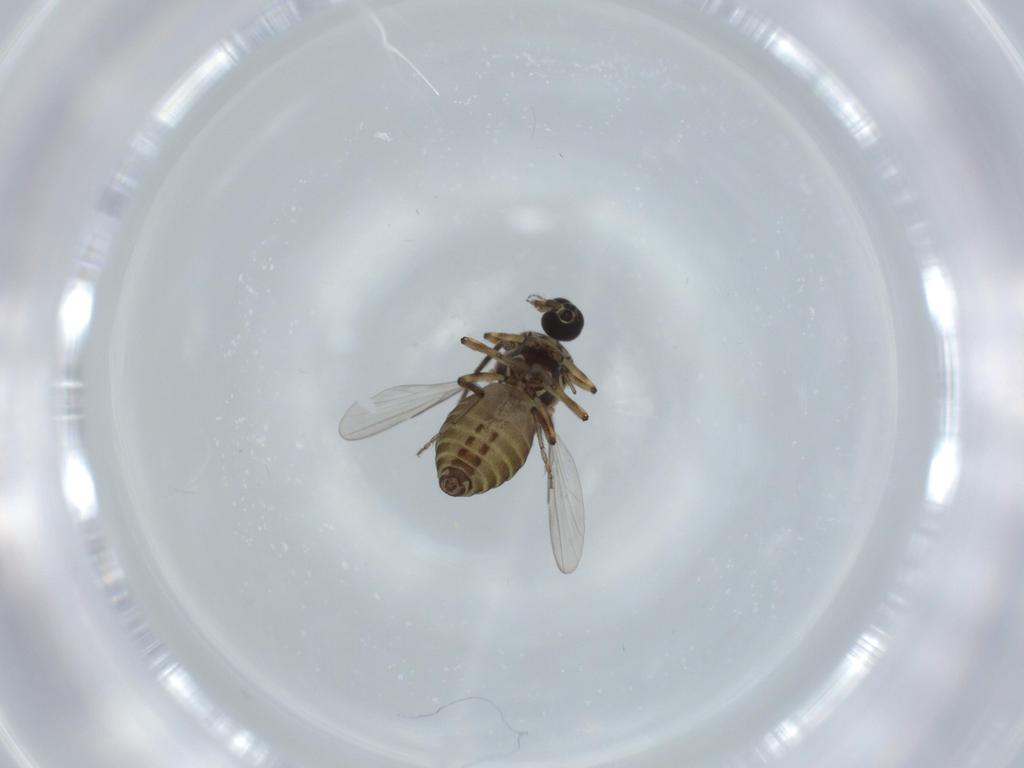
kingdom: Animalia
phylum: Arthropoda
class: Insecta
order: Diptera
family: Ceratopogonidae
